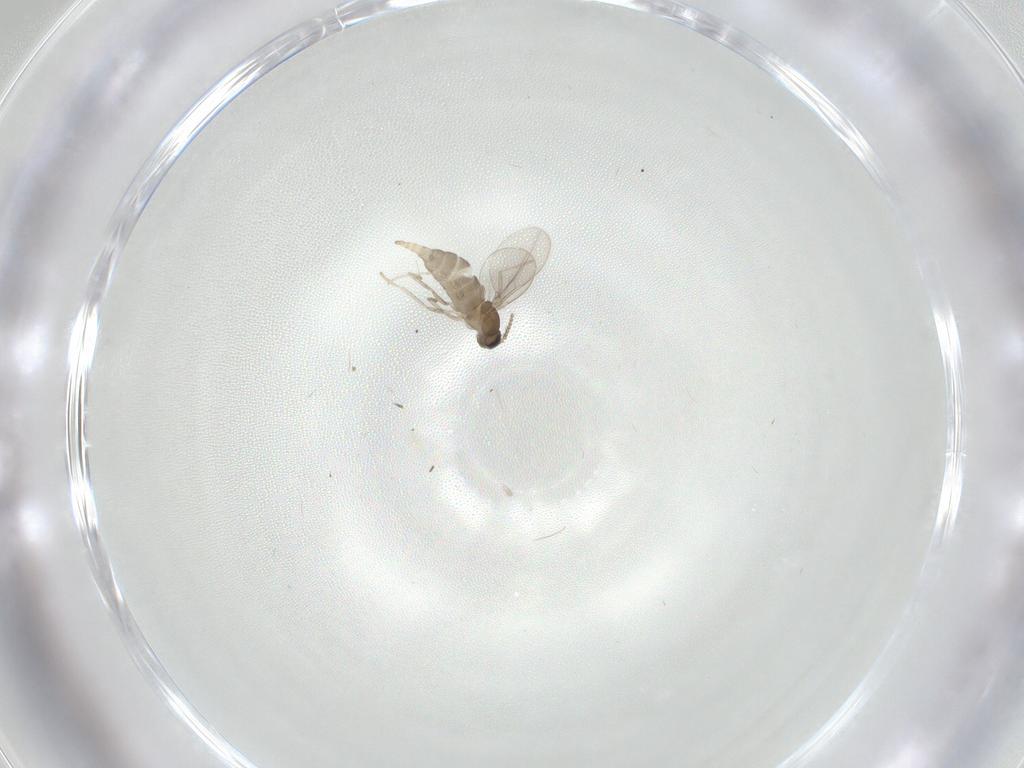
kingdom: Animalia
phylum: Arthropoda
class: Insecta
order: Diptera
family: Cecidomyiidae
